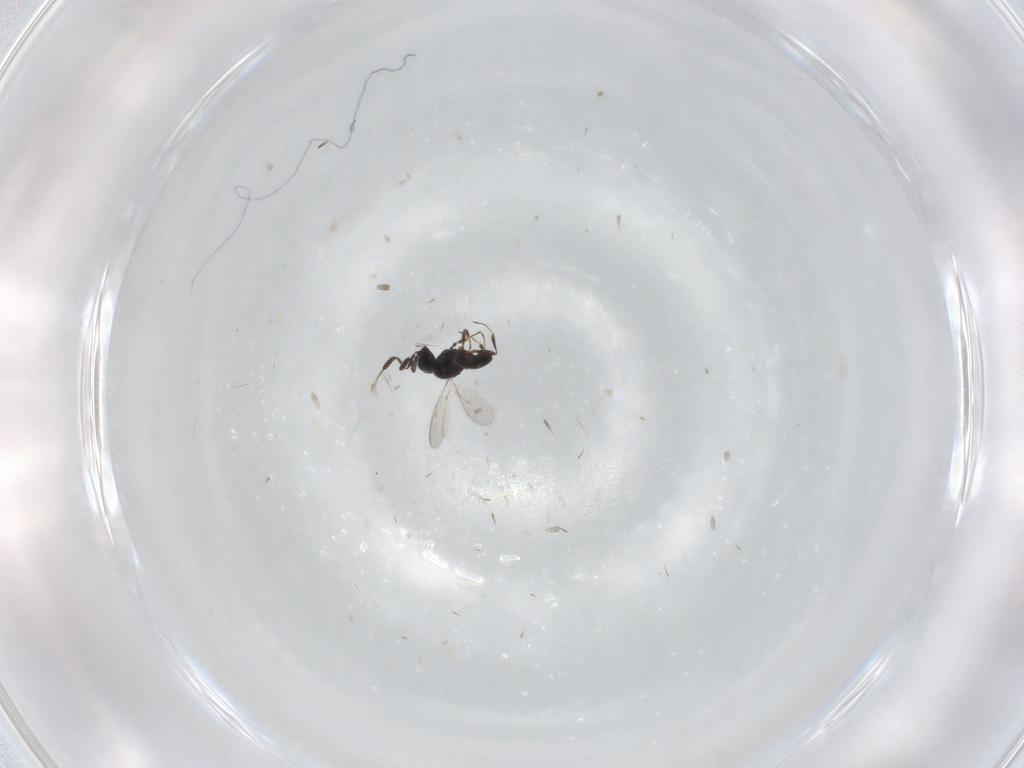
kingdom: Animalia
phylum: Arthropoda
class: Insecta
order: Hymenoptera
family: Scelionidae
